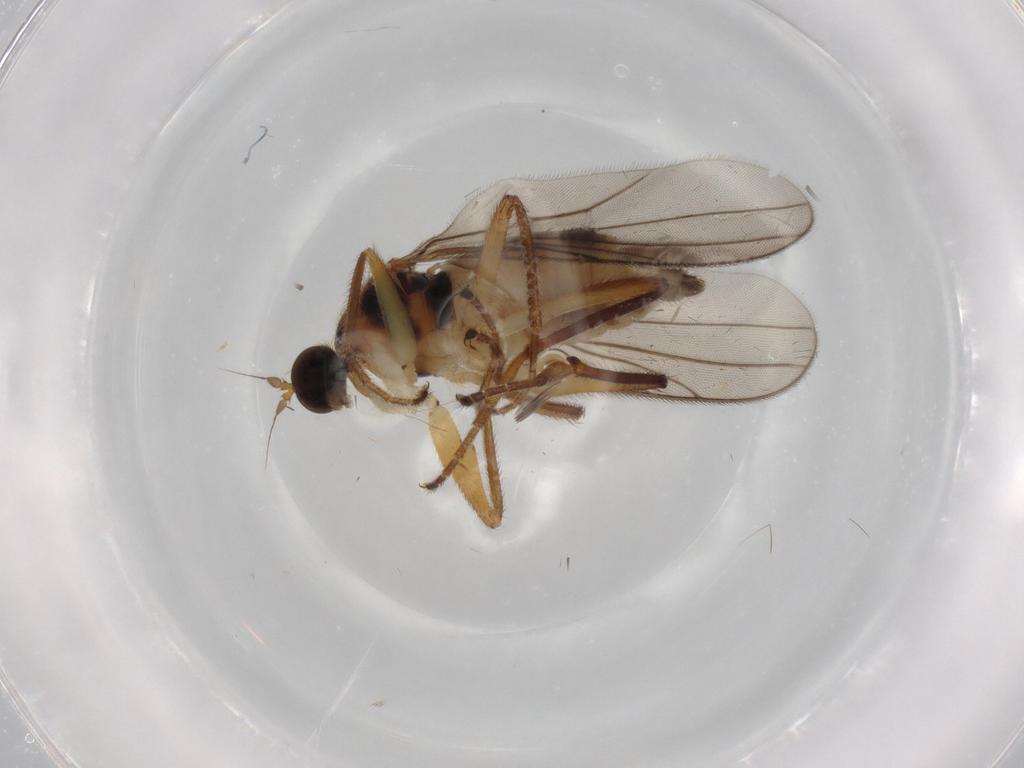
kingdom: Animalia
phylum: Arthropoda
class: Insecta
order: Diptera
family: Hybotidae
